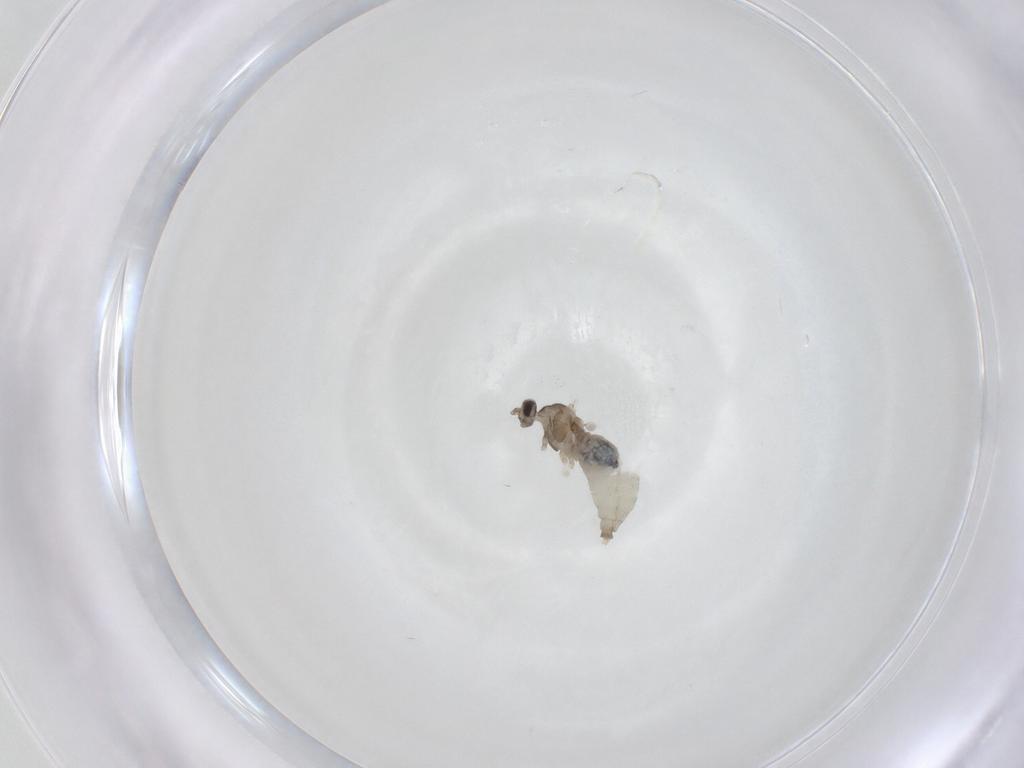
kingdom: Animalia
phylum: Arthropoda
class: Insecta
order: Diptera
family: Cecidomyiidae
